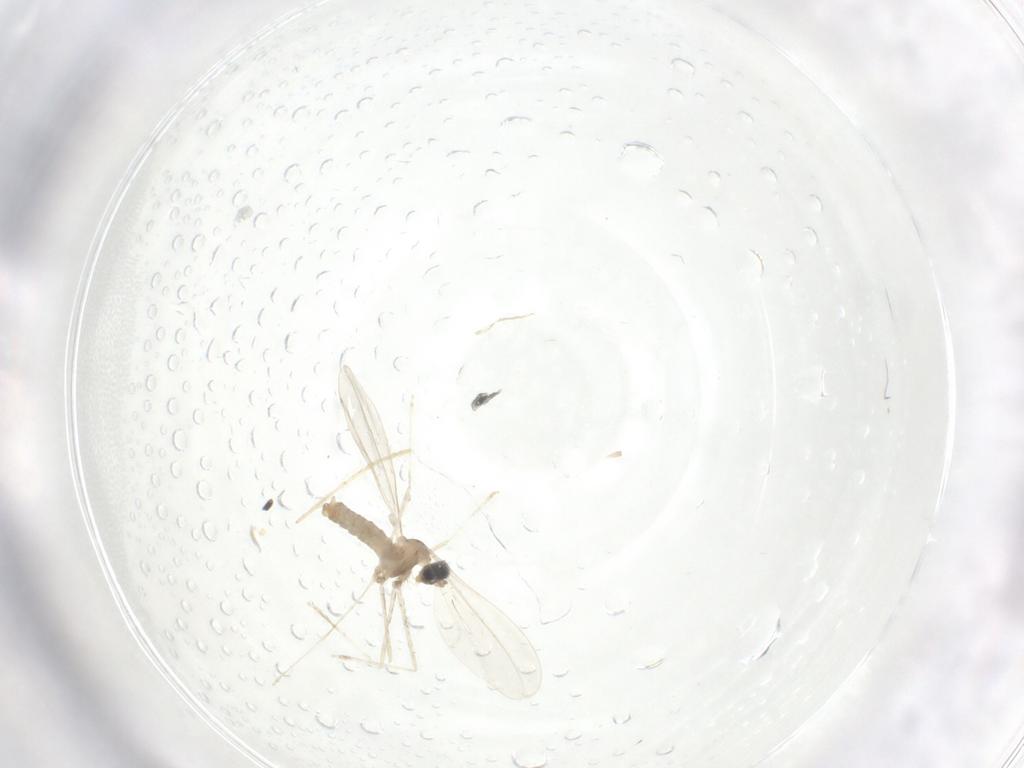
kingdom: Animalia
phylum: Arthropoda
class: Insecta
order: Diptera
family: Cecidomyiidae
